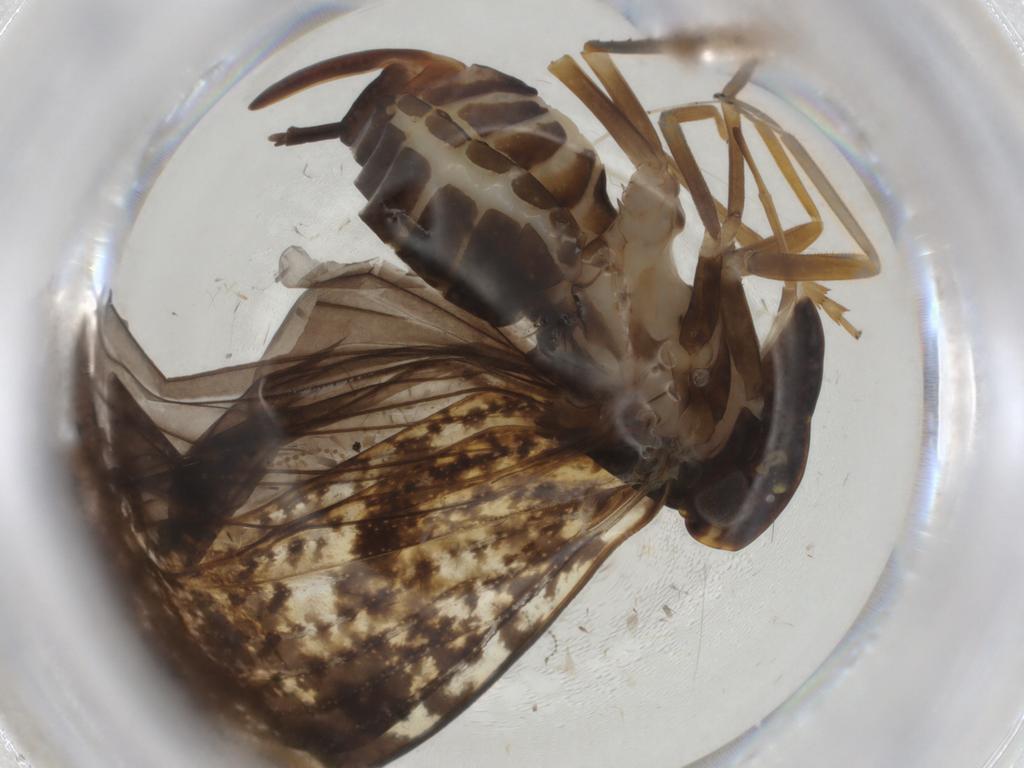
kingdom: Animalia
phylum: Arthropoda
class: Insecta
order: Hemiptera
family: Cixiidae
